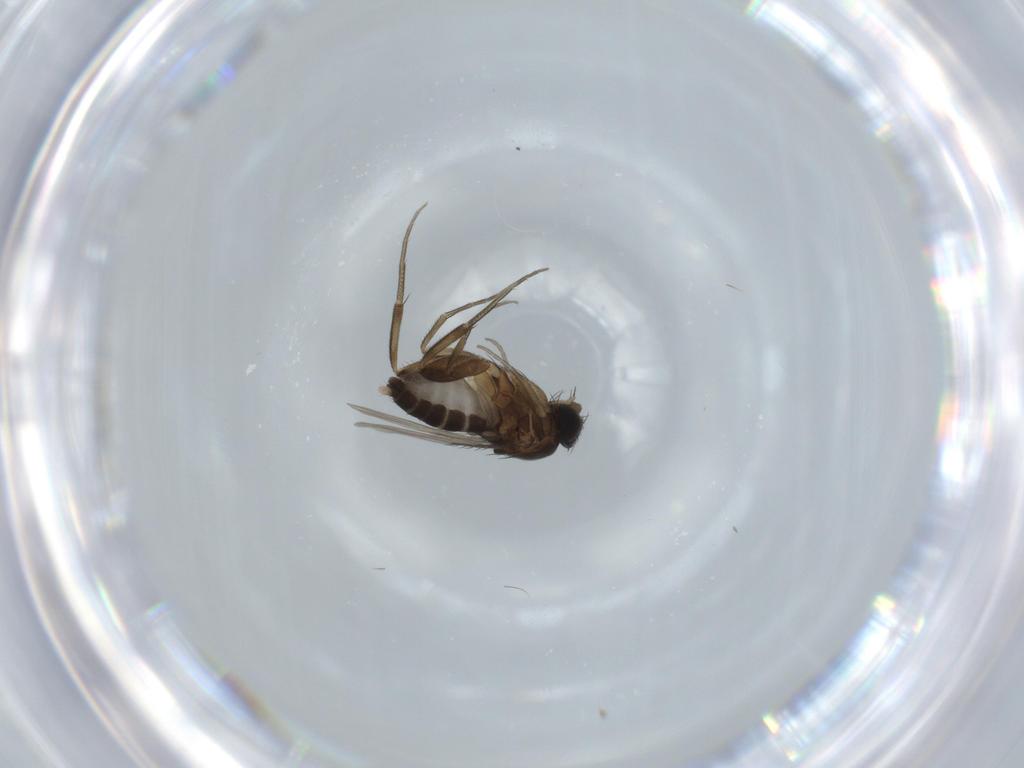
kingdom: Animalia
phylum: Arthropoda
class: Insecta
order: Diptera
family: Phoridae
